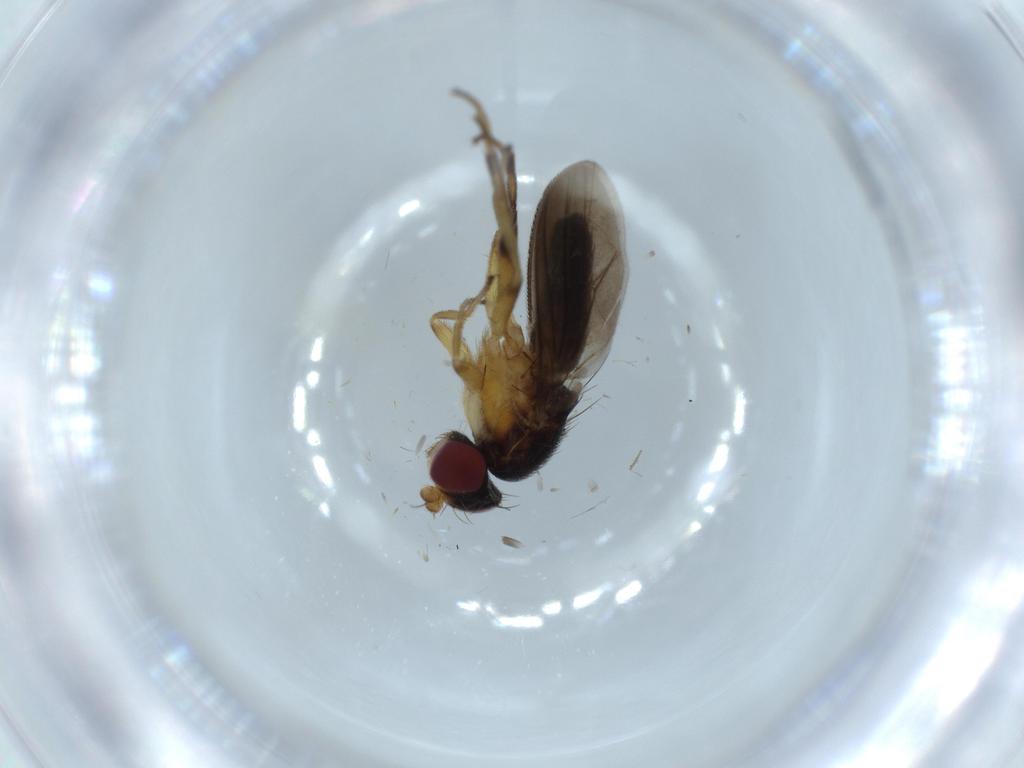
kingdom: Animalia
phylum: Arthropoda
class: Insecta
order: Diptera
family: Clusiidae
